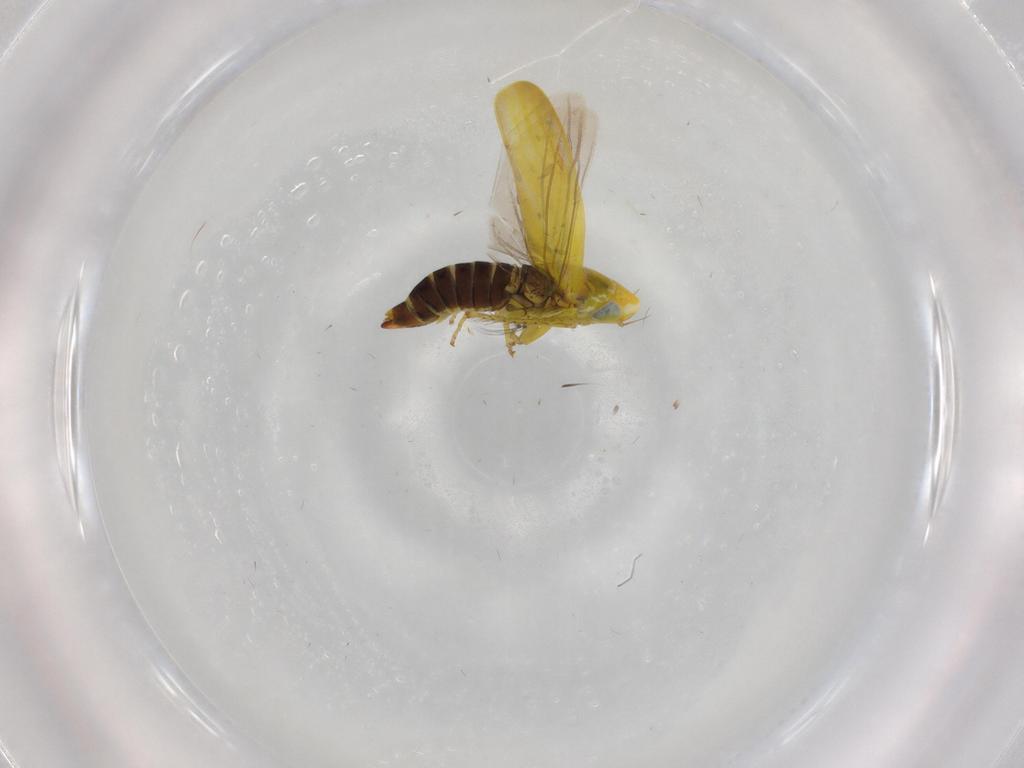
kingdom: Animalia
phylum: Arthropoda
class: Insecta
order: Hemiptera
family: Cicadellidae
